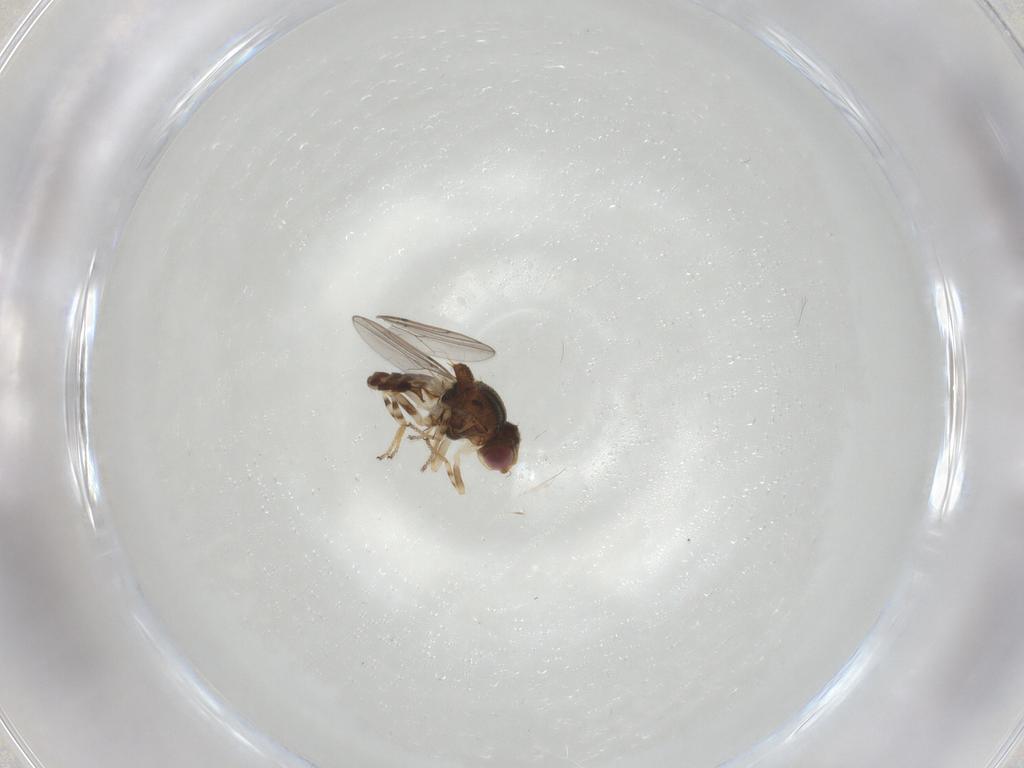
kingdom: Animalia
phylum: Arthropoda
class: Insecta
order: Diptera
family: Chloropidae
